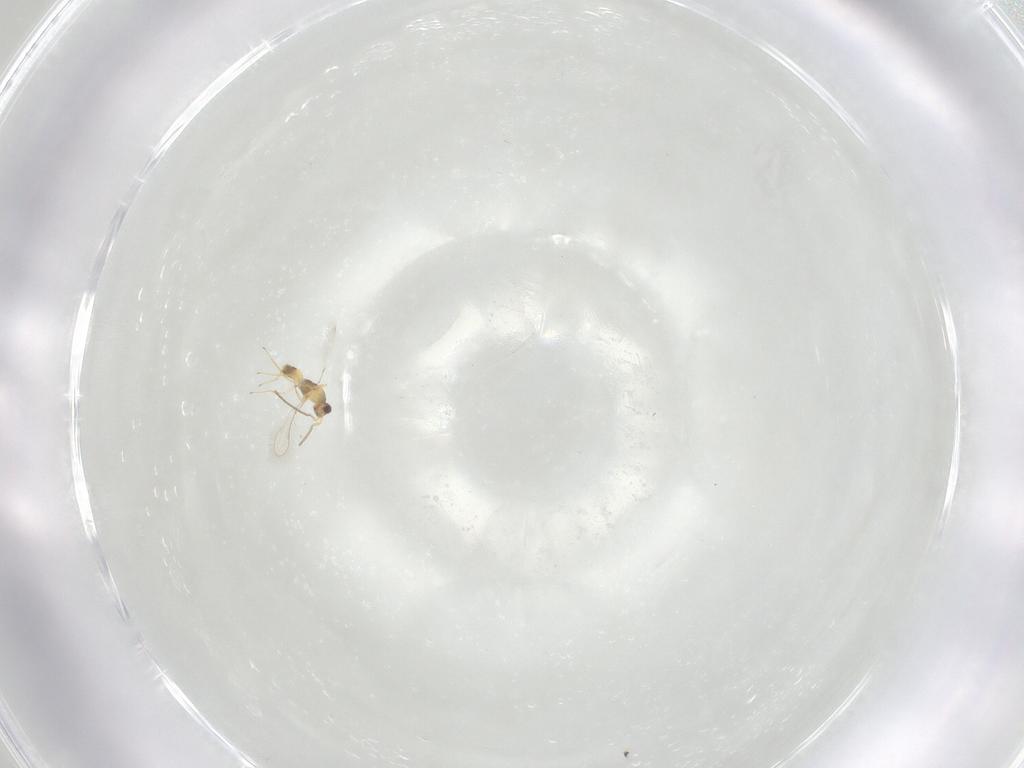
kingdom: Animalia
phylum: Arthropoda
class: Insecta
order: Hymenoptera
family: Mymaridae
